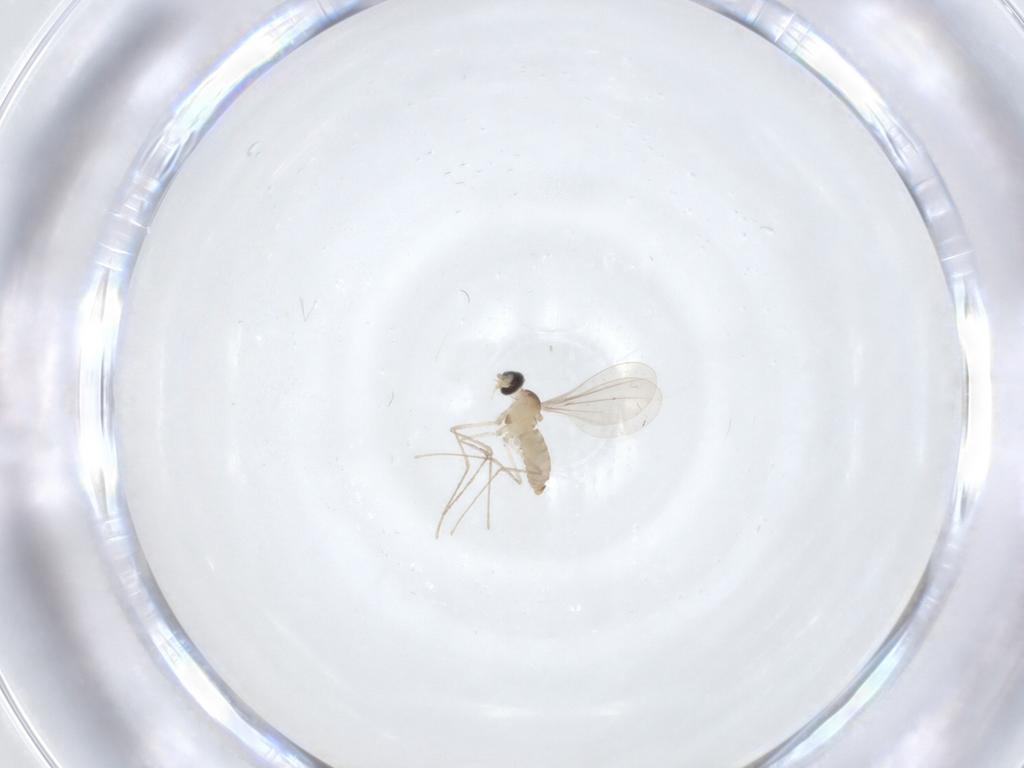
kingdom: Animalia
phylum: Arthropoda
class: Insecta
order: Diptera
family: Cecidomyiidae
